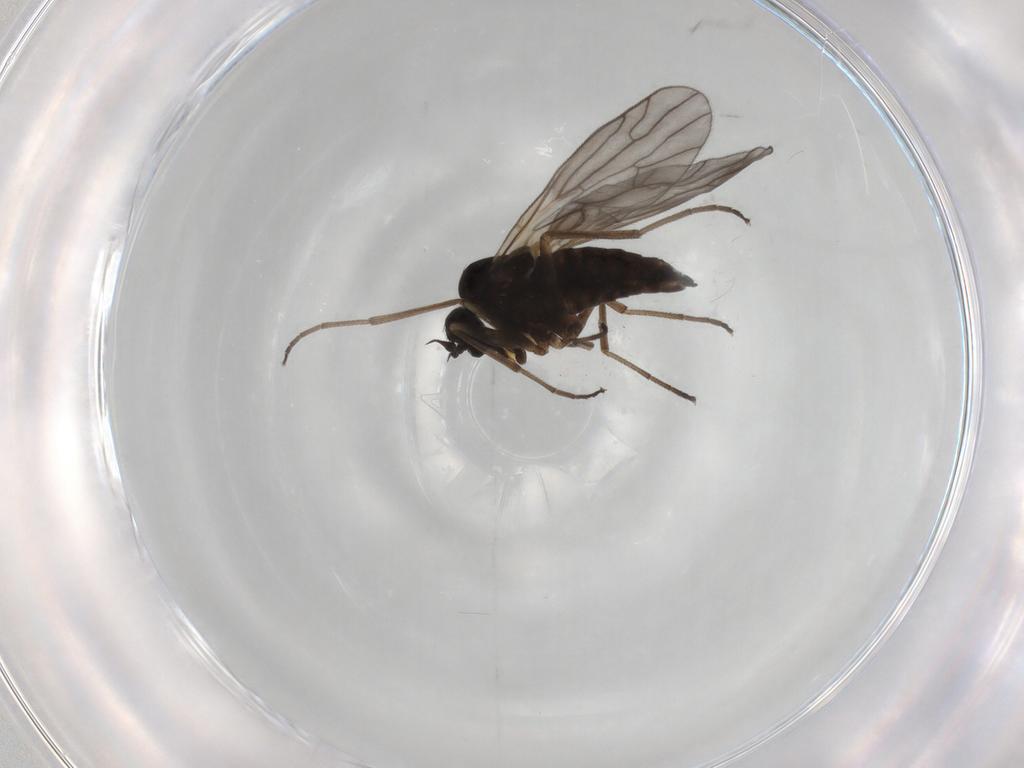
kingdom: Animalia
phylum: Arthropoda
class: Insecta
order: Diptera
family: Empididae
